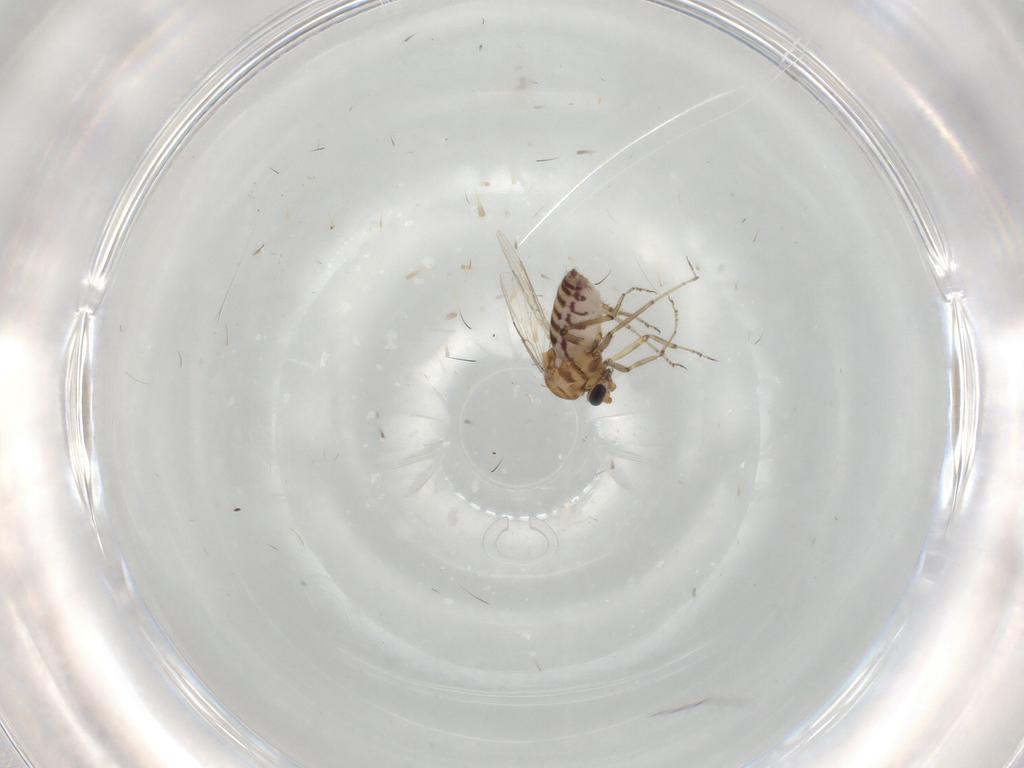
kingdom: Animalia
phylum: Arthropoda
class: Insecta
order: Diptera
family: Ceratopogonidae
